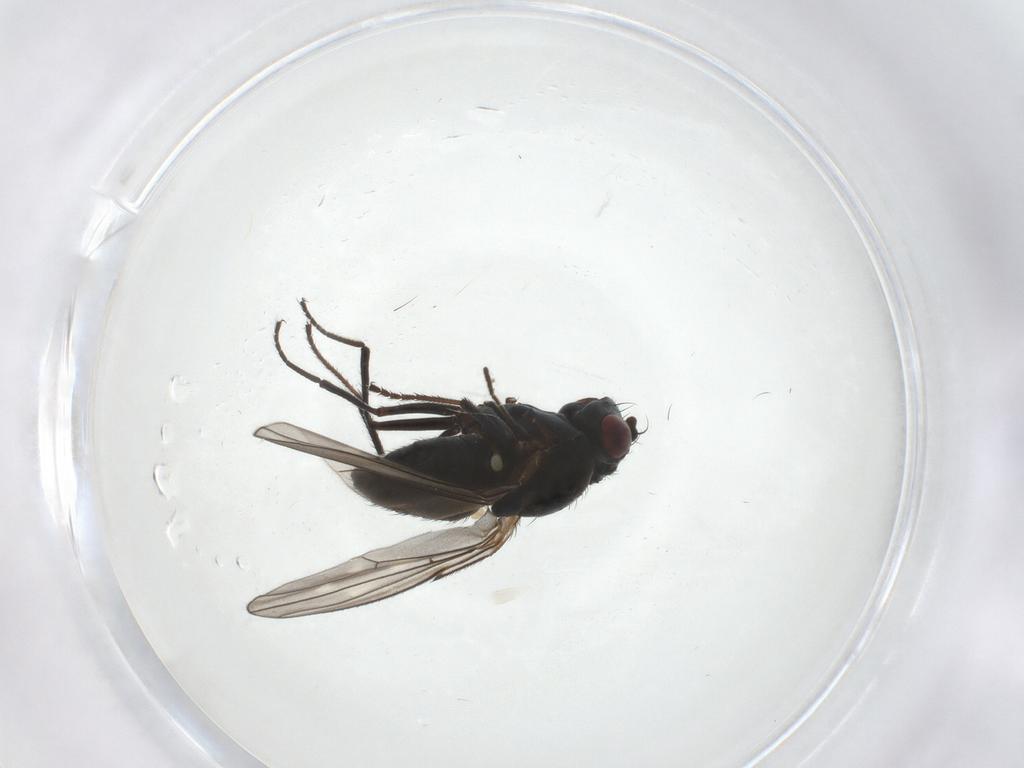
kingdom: Animalia
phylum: Arthropoda
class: Insecta
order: Diptera
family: Ephydridae
